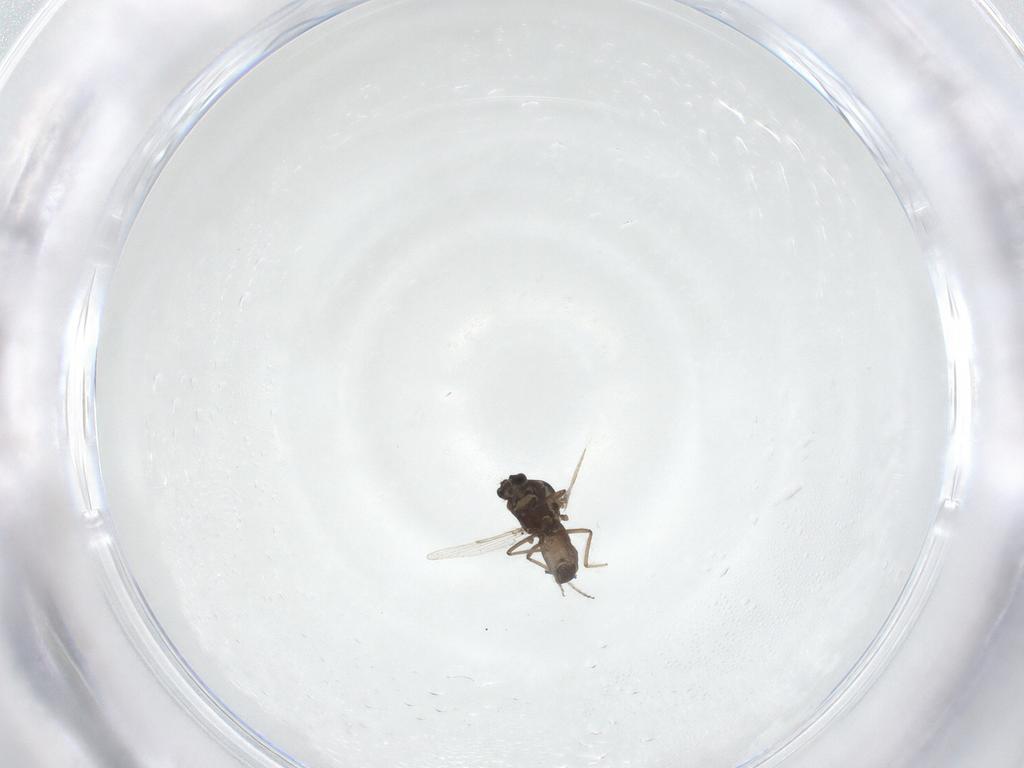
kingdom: Animalia
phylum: Arthropoda
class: Insecta
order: Diptera
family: Ceratopogonidae
